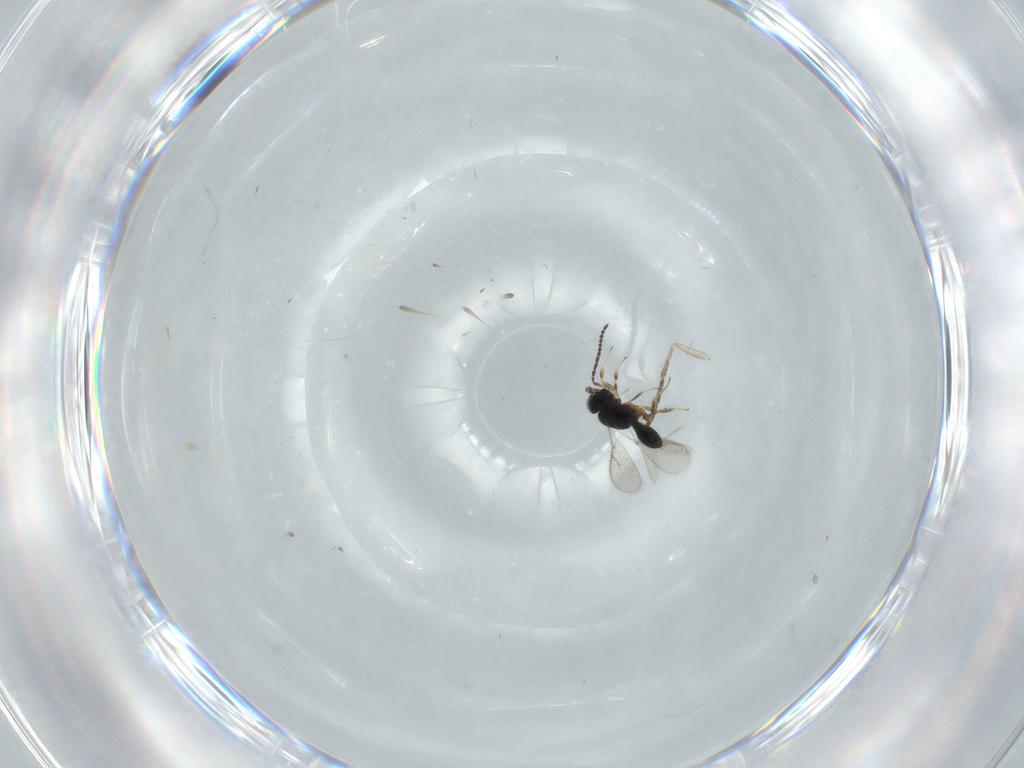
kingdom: Animalia
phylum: Arthropoda
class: Insecta
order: Hymenoptera
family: Scelionidae
